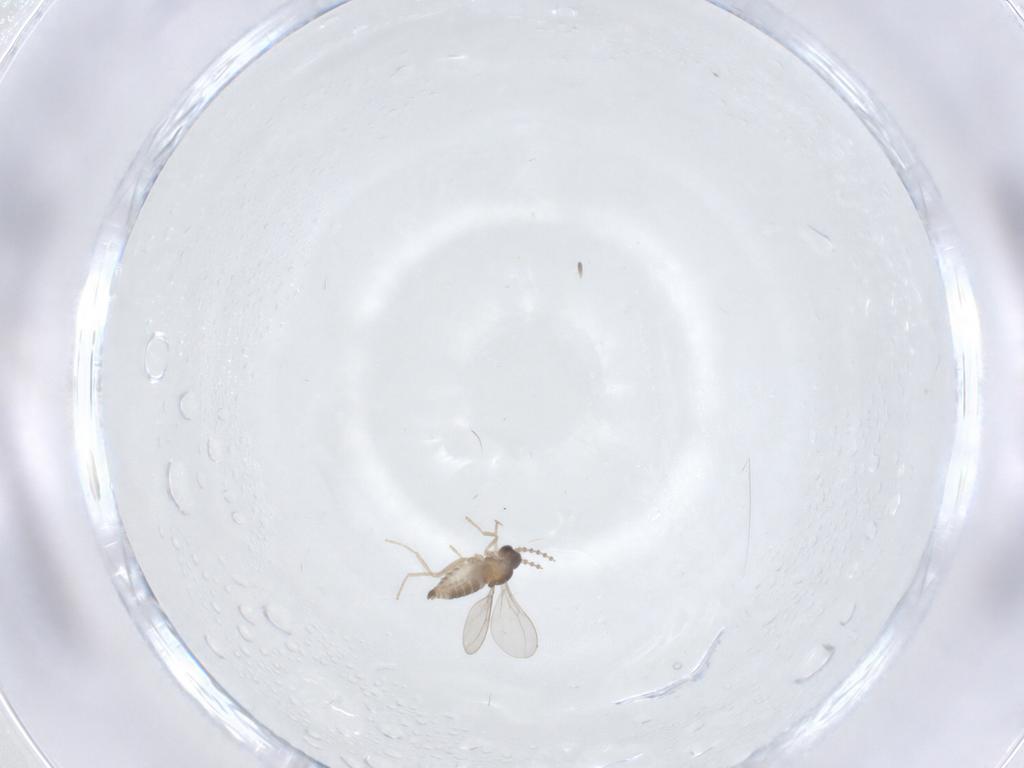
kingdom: Animalia
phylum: Arthropoda
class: Insecta
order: Diptera
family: Cecidomyiidae
